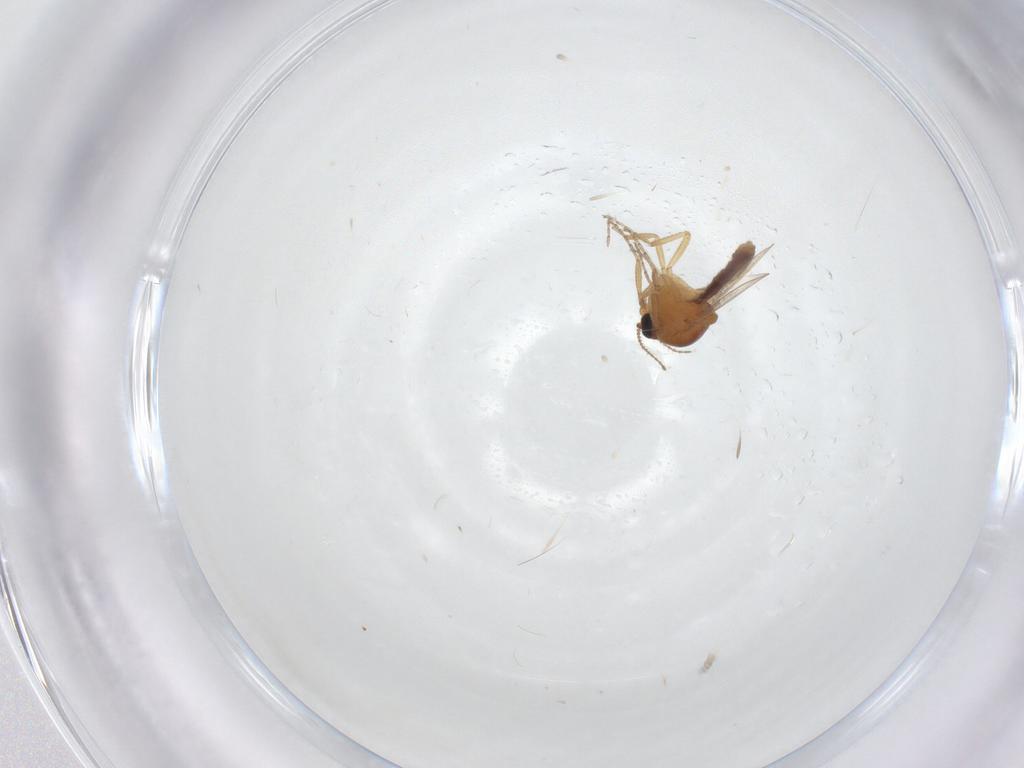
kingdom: Animalia
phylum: Arthropoda
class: Insecta
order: Diptera
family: Ceratopogonidae
